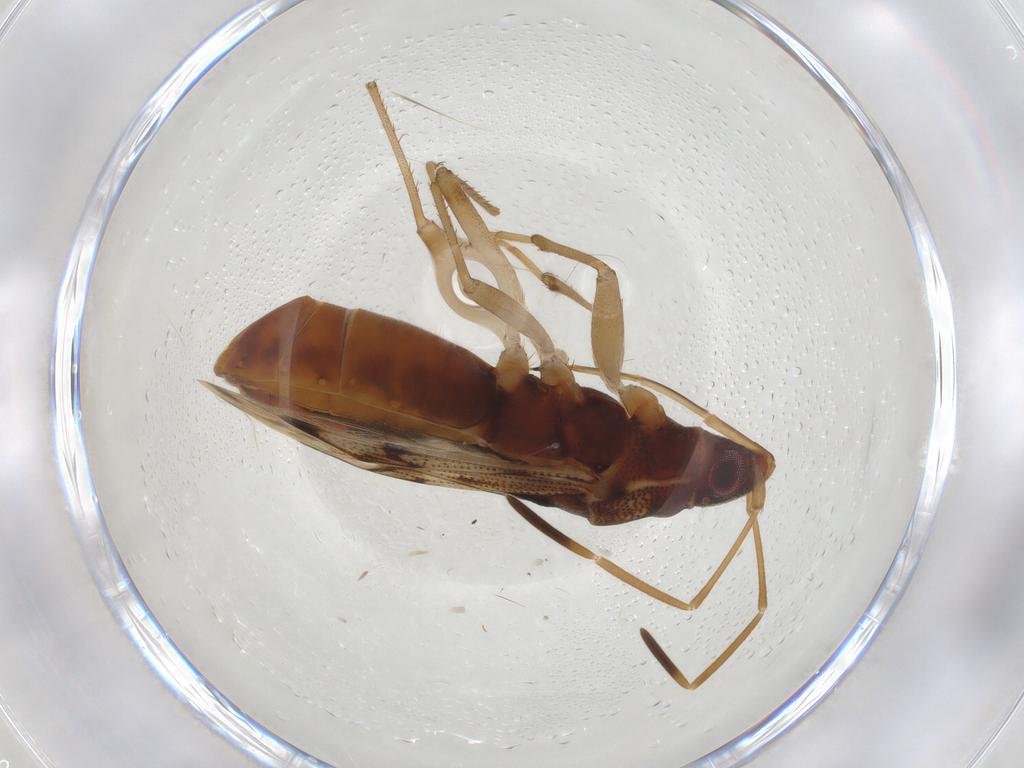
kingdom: Animalia
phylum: Arthropoda
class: Insecta
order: Hemiptera
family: Rhyparochromidae
